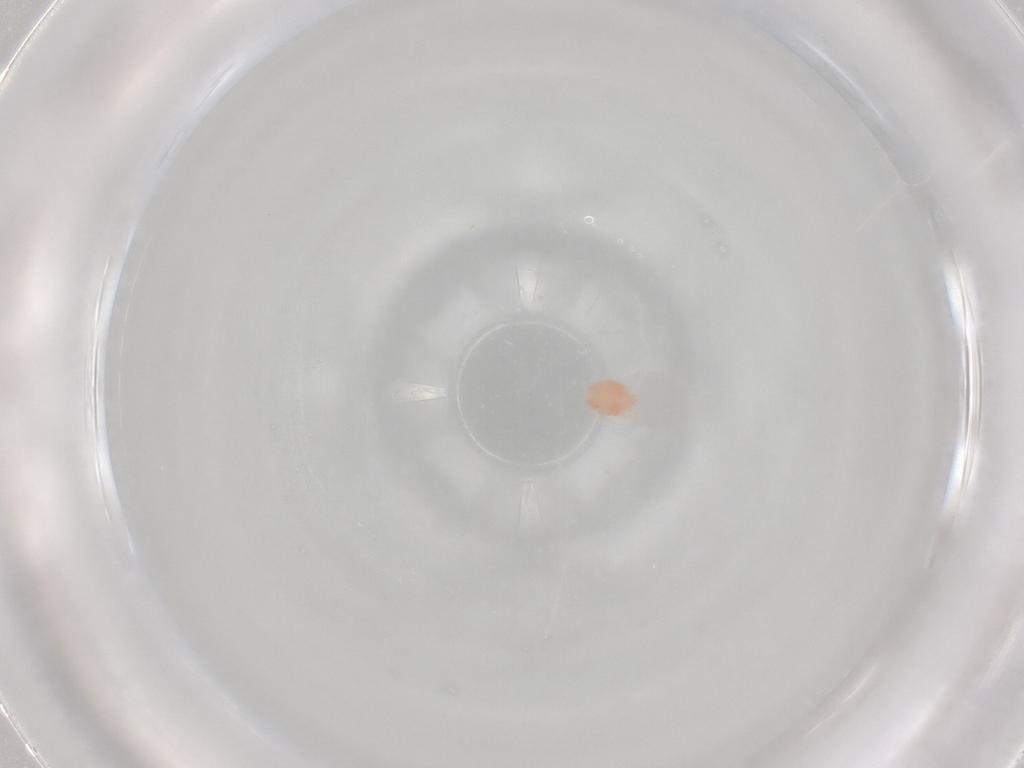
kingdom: Animalia
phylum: Arthropoda
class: Arachnida
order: Trombidiformes
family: Stigmaeidae
